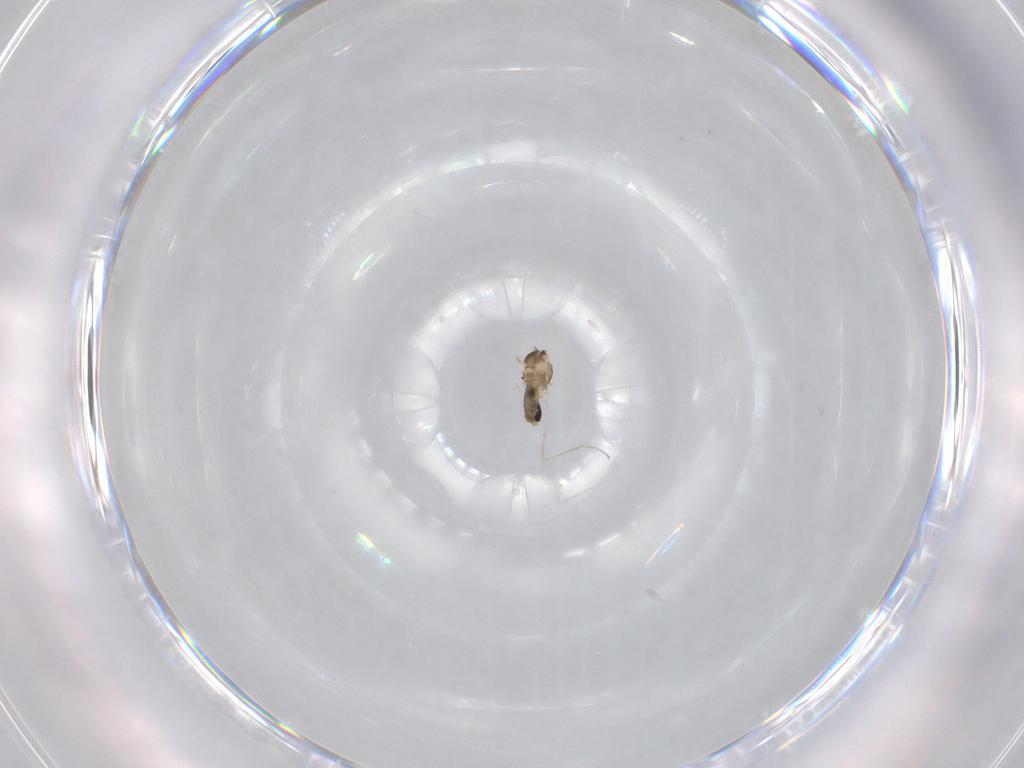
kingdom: Animalia
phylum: Arthropoda
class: Insecta
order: Diptera
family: Cecidomyiidae
